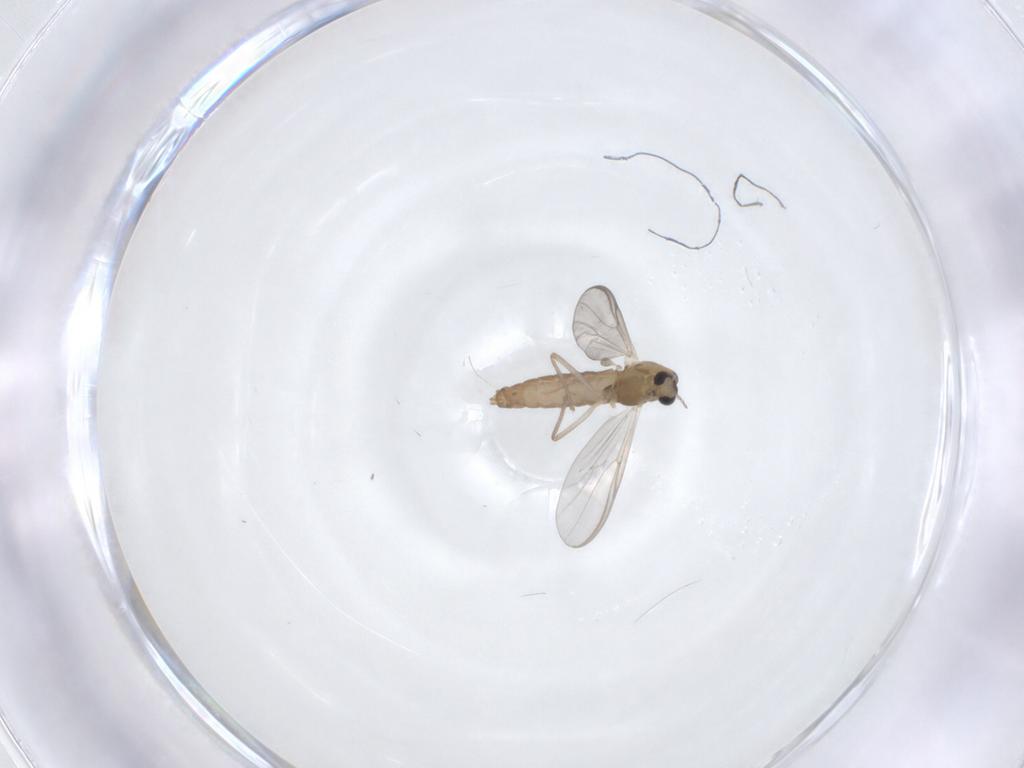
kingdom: Animalia
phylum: Arthropoda
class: Insecta
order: Diptera
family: Chironomidae
